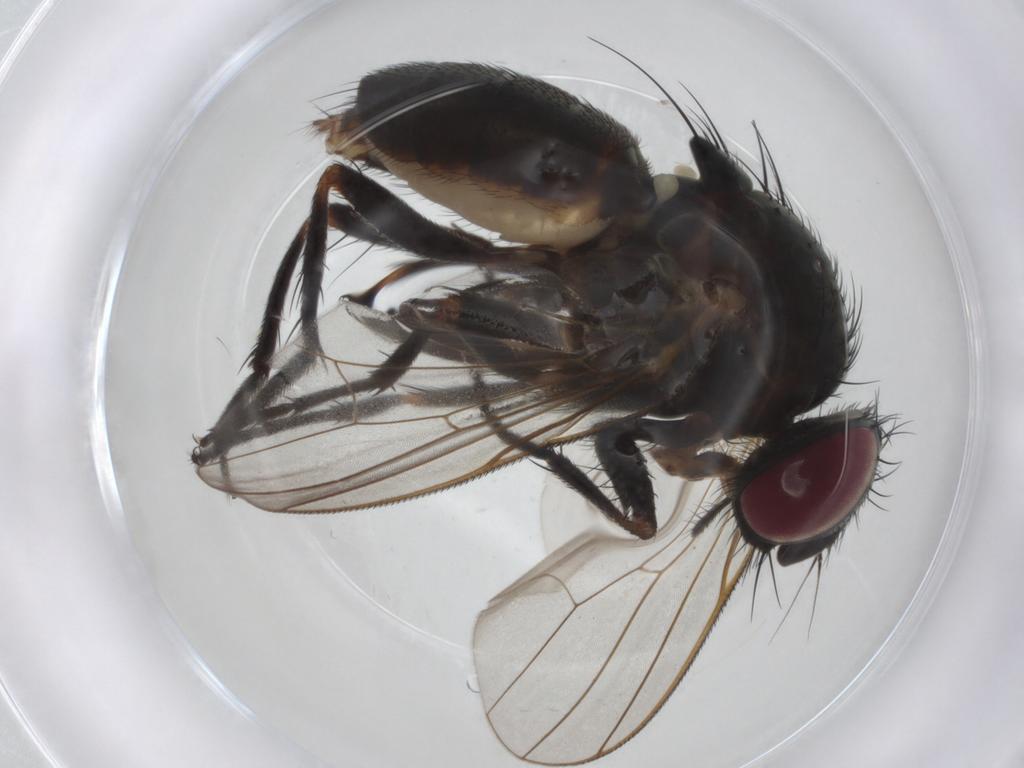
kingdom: Animalia
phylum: Arthropoda
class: Insecta
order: Diptera
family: Fannia
